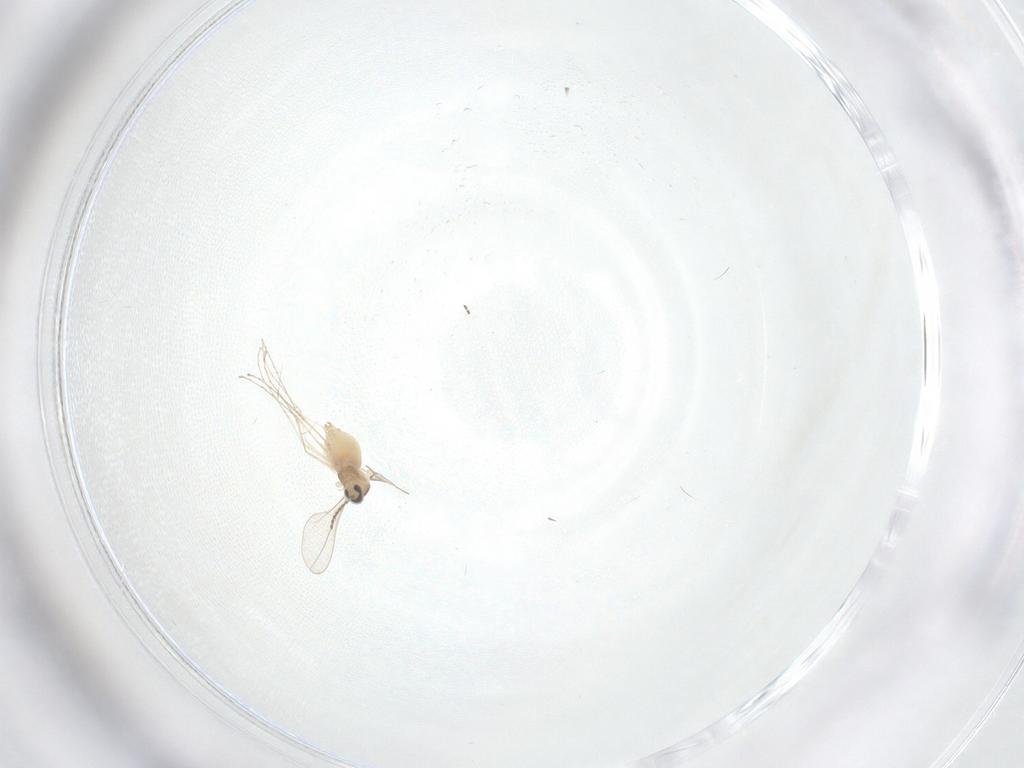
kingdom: Animalia
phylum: Arthropoda
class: Insecta
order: Diptera
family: Cecidomyiidae
